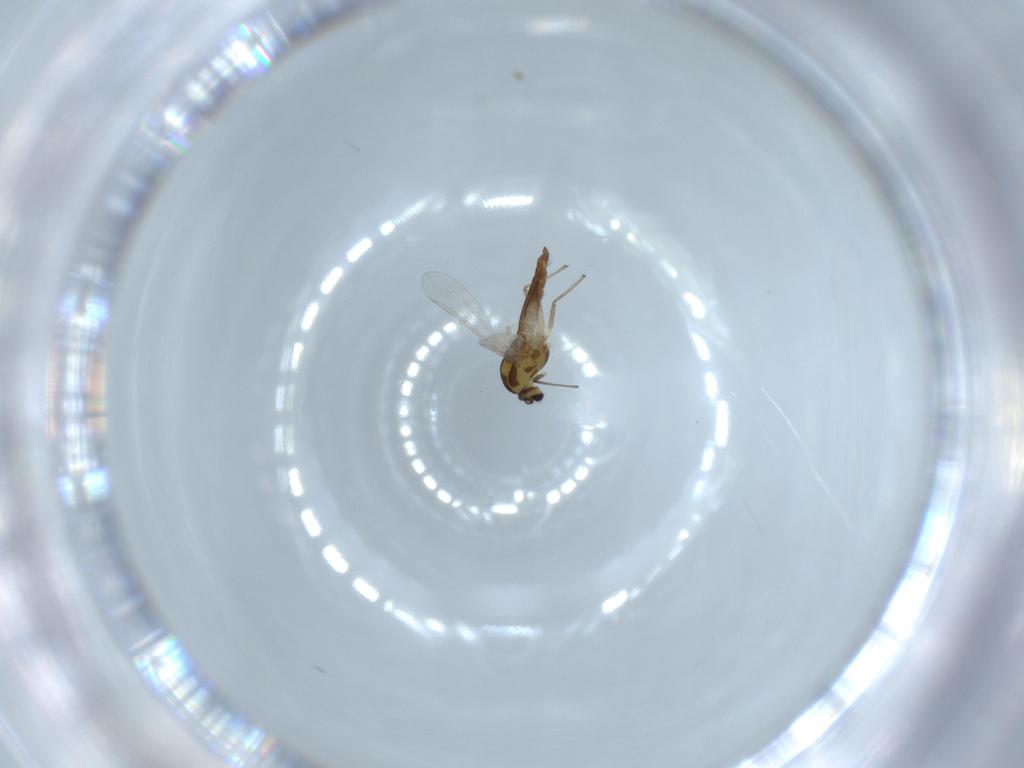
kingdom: Animalia
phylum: Arthropoda
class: Insecta
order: Diptera
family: Chironomidae
